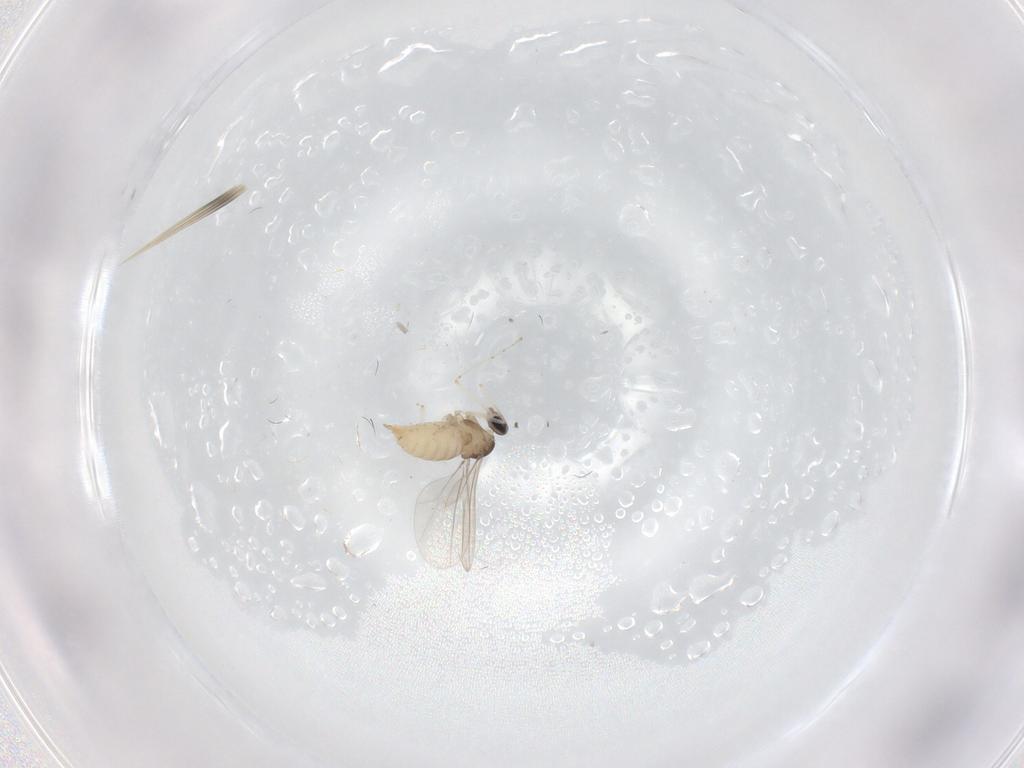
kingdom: Animalia
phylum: Arthropoda
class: Insecta
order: Diptera
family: Cecidomyiidae
